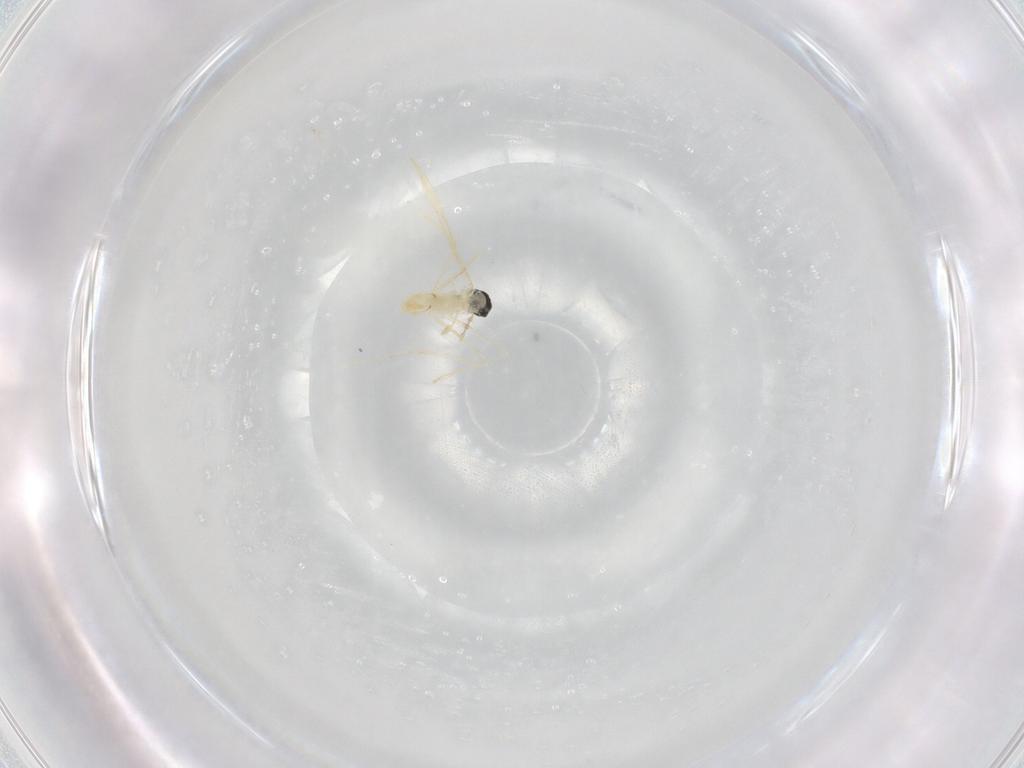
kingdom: Animalia
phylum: Arthropoda
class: Insecta
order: Diptera
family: Cecidomyiidae
